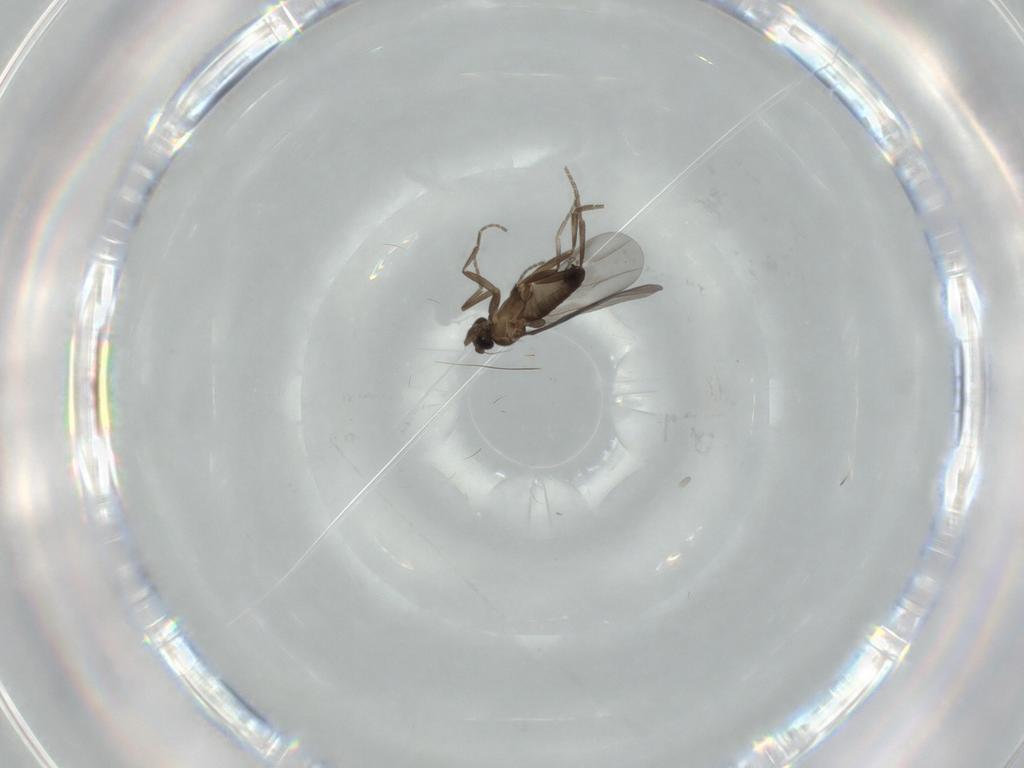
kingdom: Animalia
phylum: Arthropoda
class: Insecta
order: Diptera
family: Phoridae
